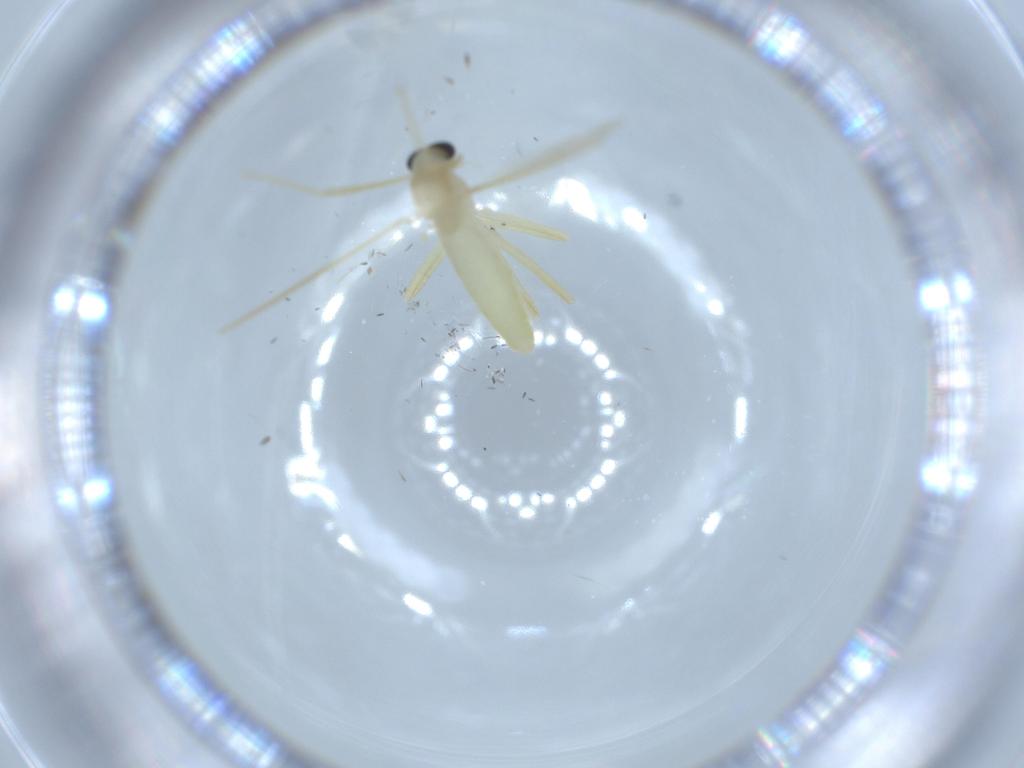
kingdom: Animalia
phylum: Arthropoda
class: Insecta
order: Diptera
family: Chironomidae
